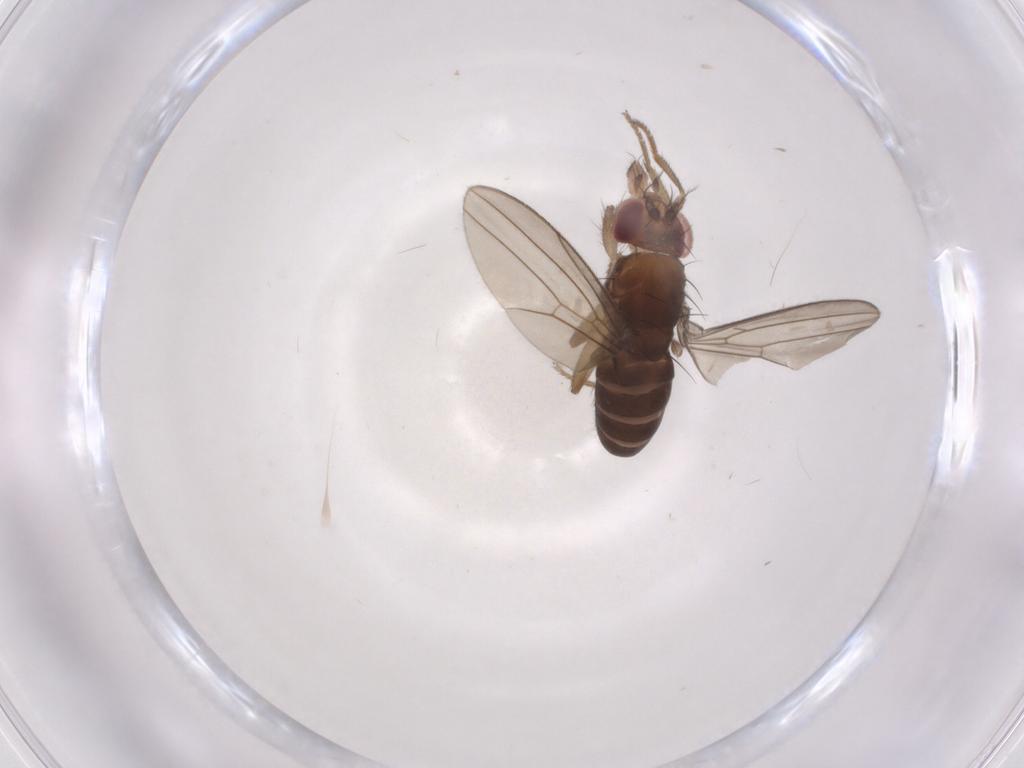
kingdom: Animalia
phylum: Arthropoda
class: Insecta
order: Diptera
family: Drosophilidae
